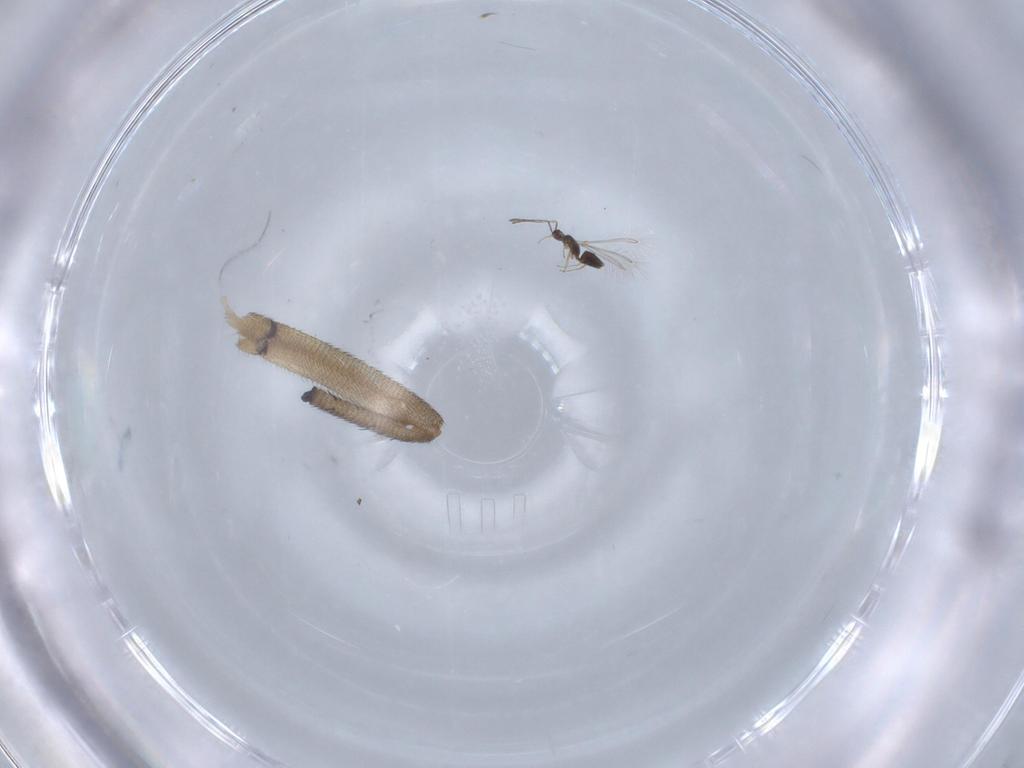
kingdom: Animalia
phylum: Arthropoda
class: Insecta
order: Hymenoptera
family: Mymaridae
